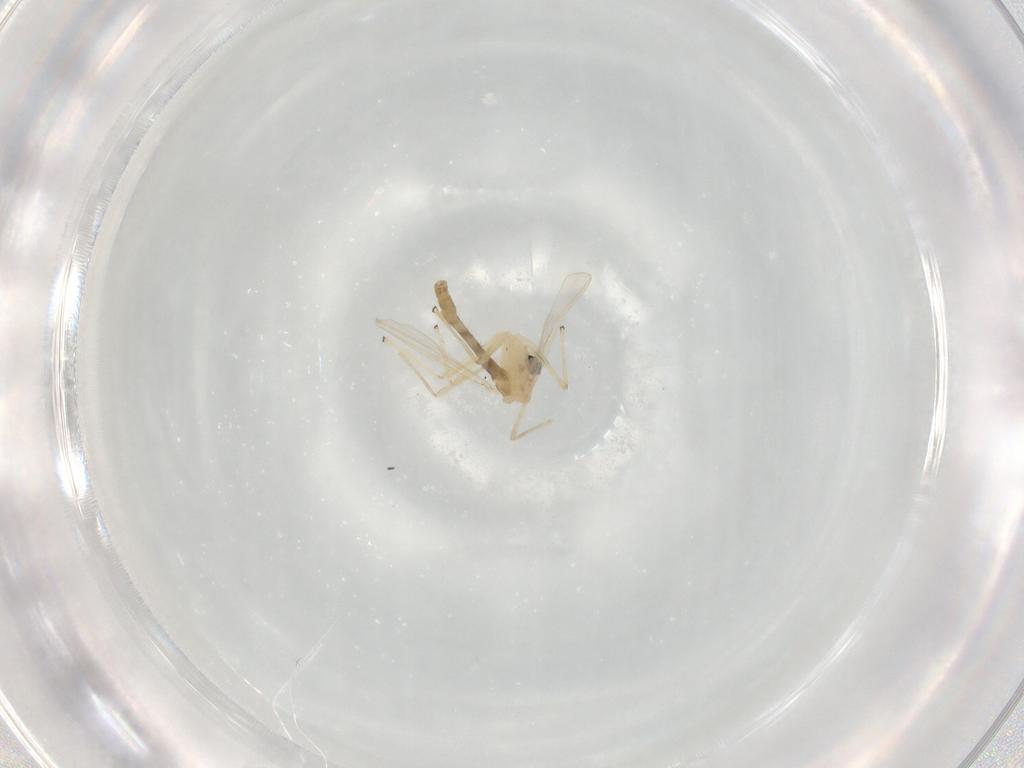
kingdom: Animalia
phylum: Arthropoda
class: Insecta
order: Diptera
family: Chironomidae
